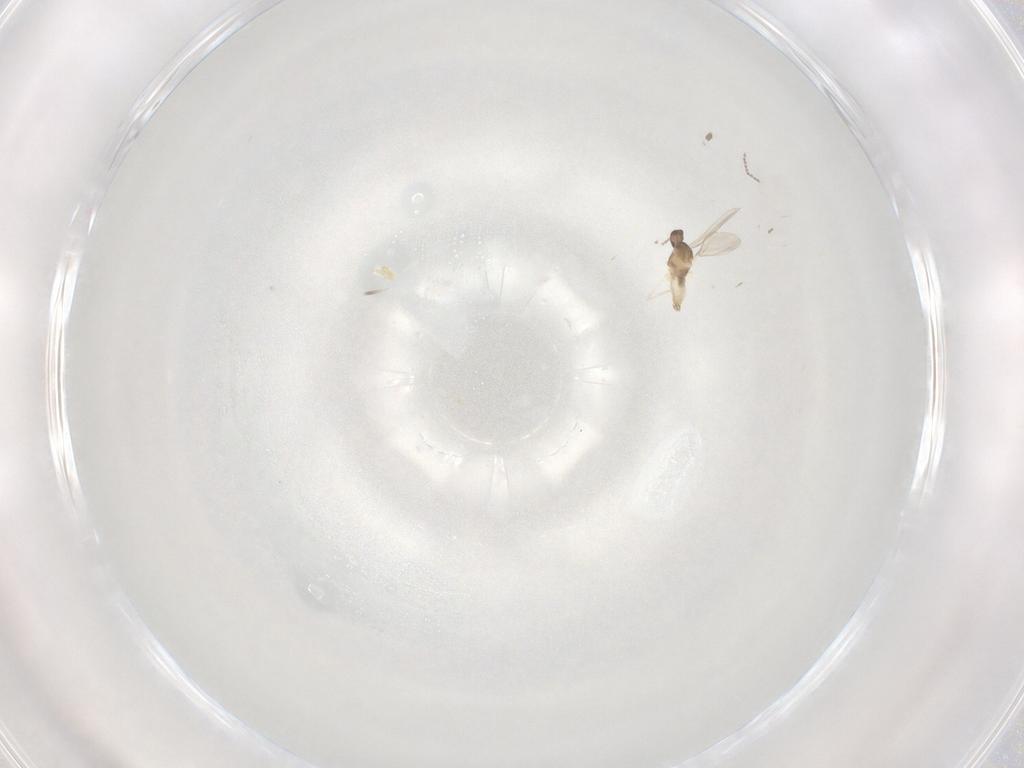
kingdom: Animalia
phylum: Arthropoda
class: Insecta
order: Diptera
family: Cecidomyiidae
